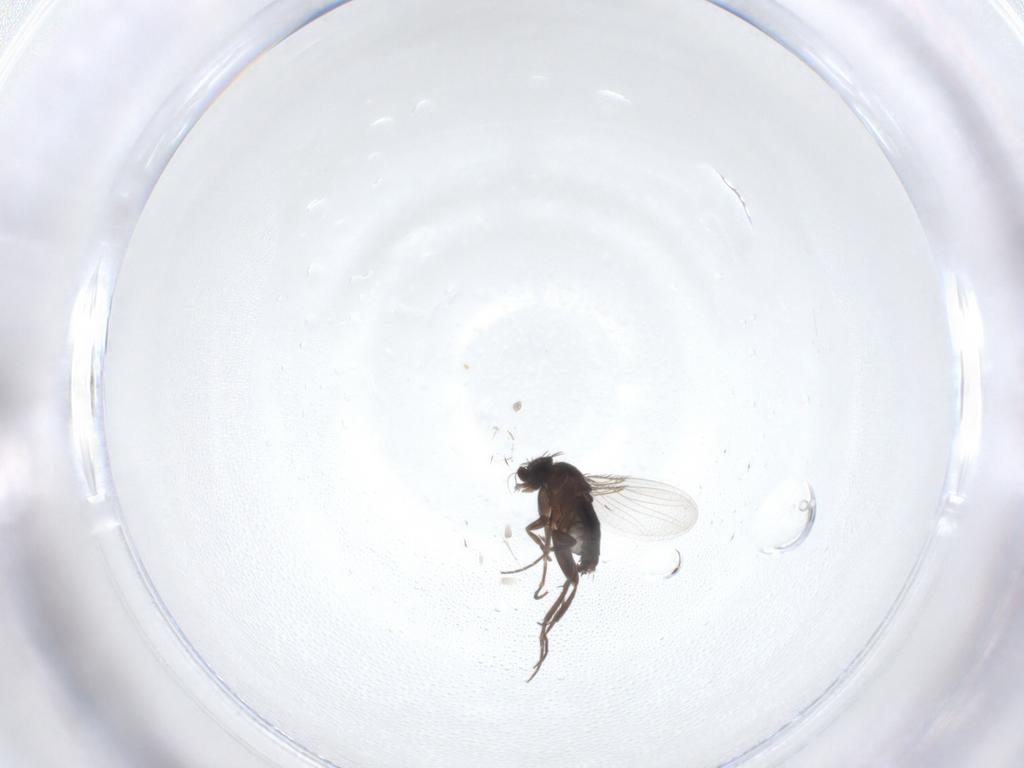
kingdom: Animalia
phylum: Arthropoda
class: Insecta
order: Diptera
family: Phoridae
